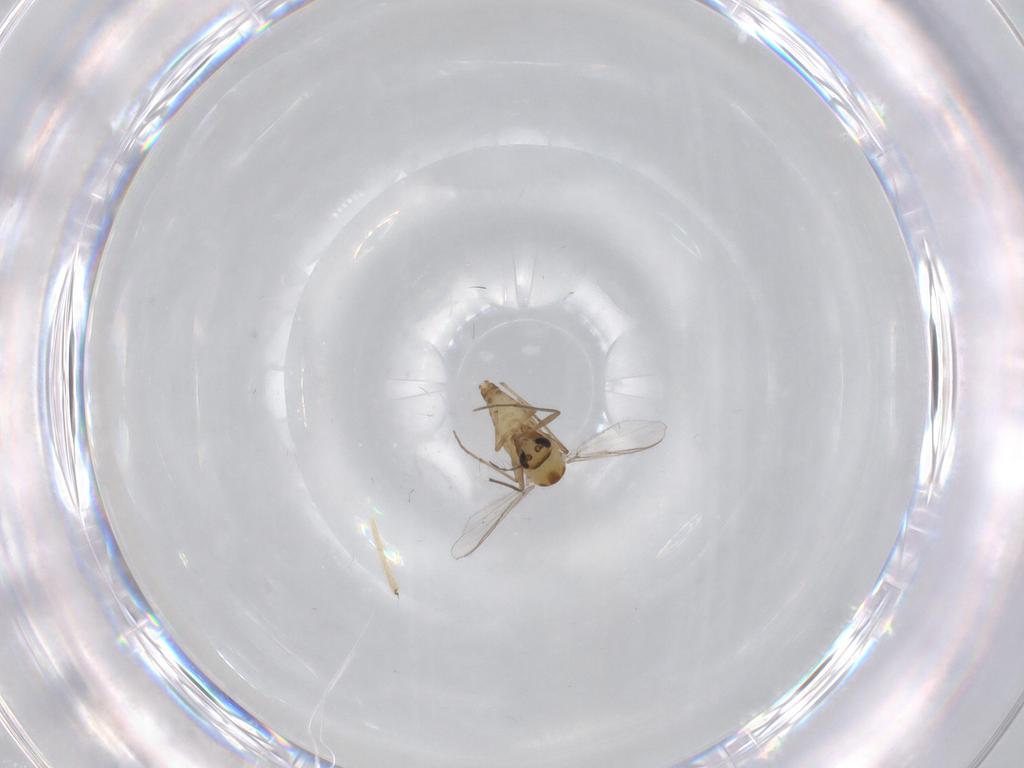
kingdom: Animalia
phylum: Arthropoda
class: Insecta
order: Diptera
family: Chironomidae
